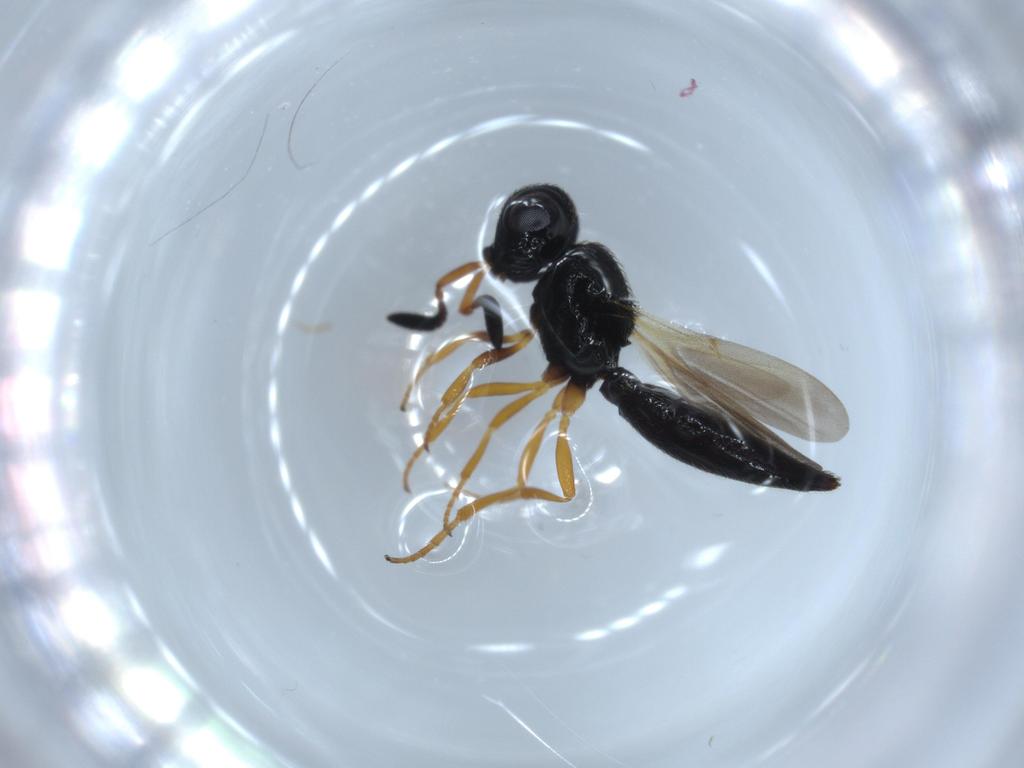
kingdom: Animalia
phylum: Arthropoda
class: Insecta
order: Hymenoptera
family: Scelionidae
